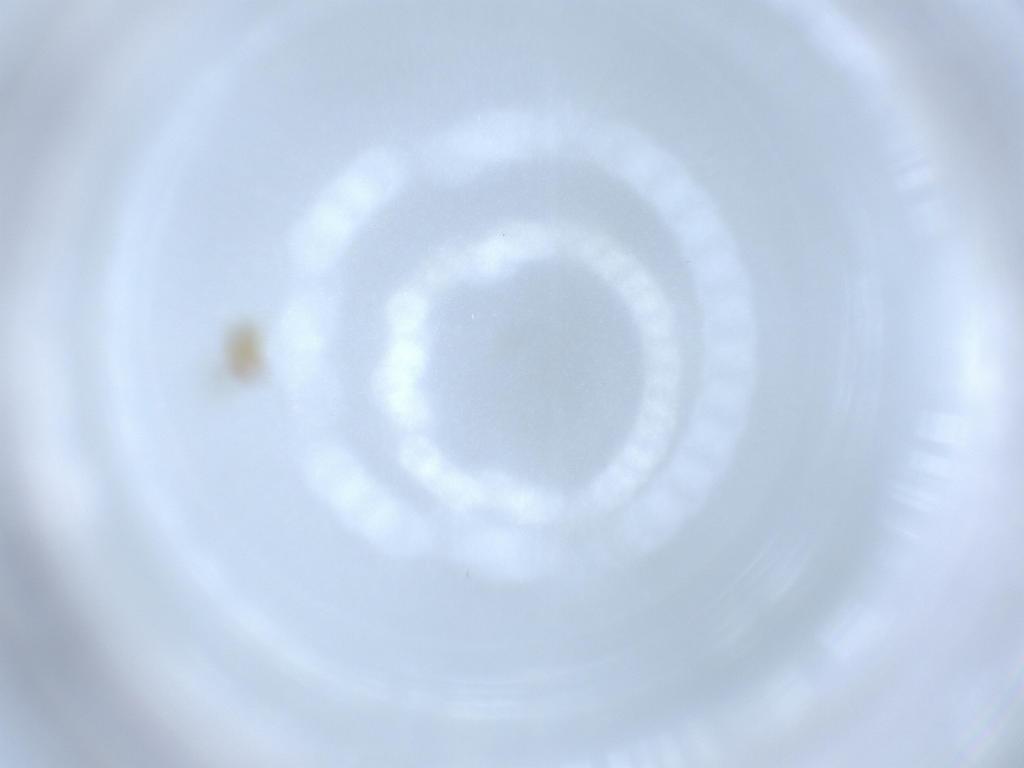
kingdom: Animalia
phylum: Arthropoda
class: Insecta
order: Hymenoptera
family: Trichogrammatidae
